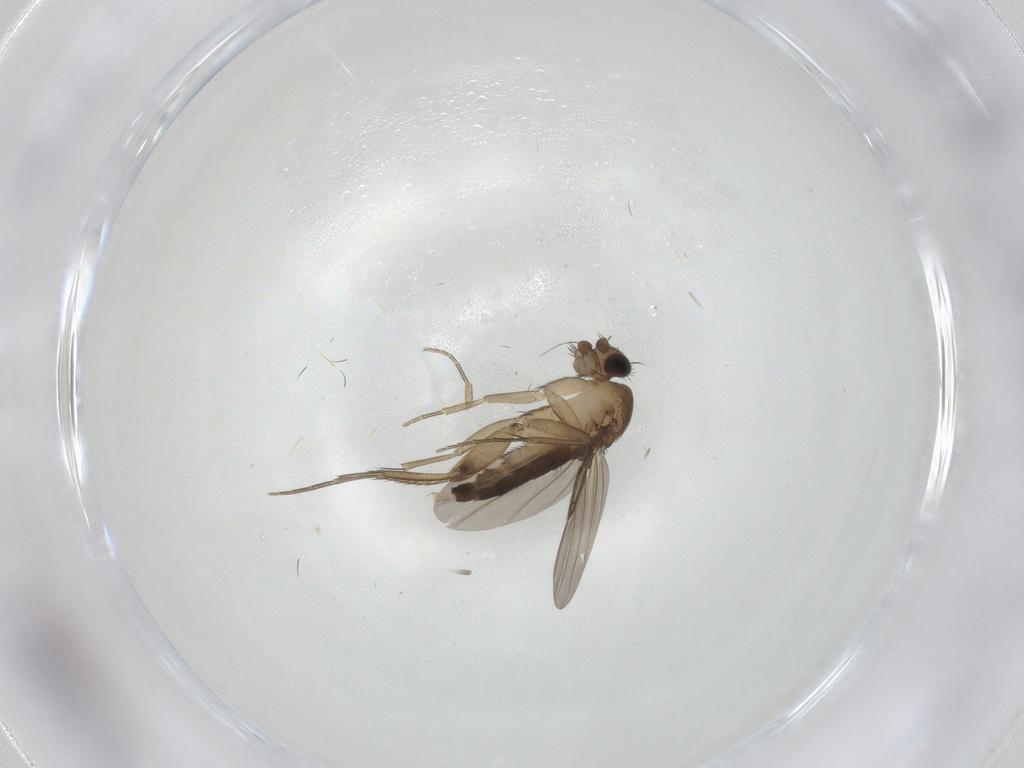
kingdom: Animalia
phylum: Arthropoda
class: Insecta
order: Diptera
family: Phoridae
